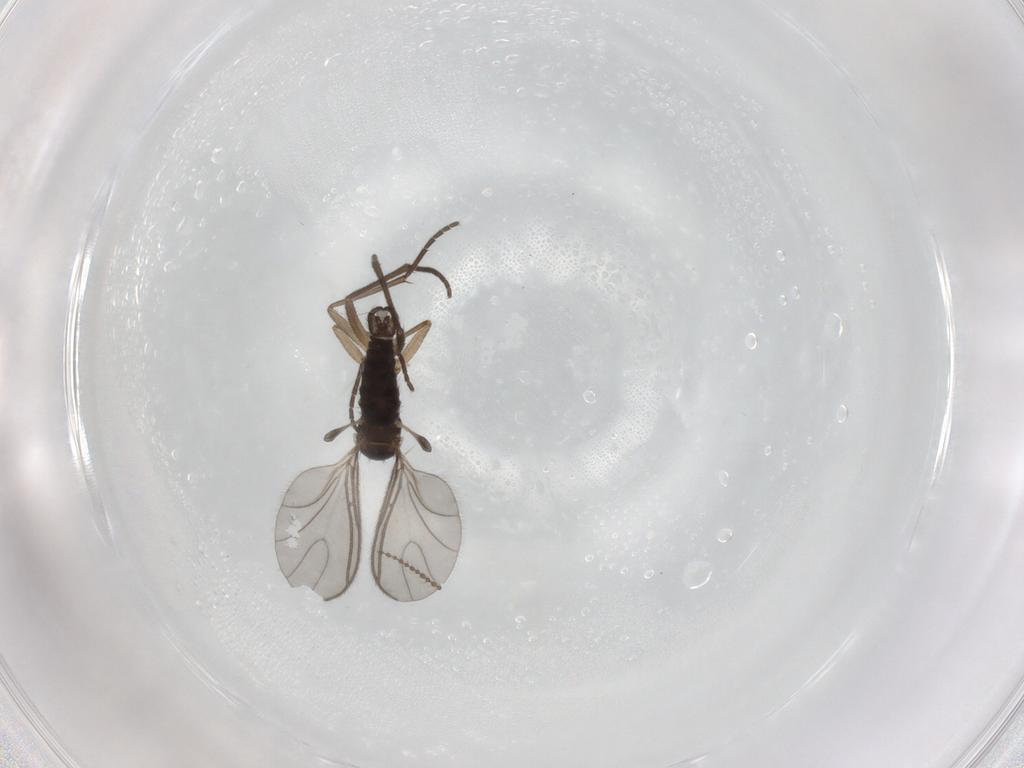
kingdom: Animalia
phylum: Arthropoda
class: Insecta
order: Diptera
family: Sciaridae
